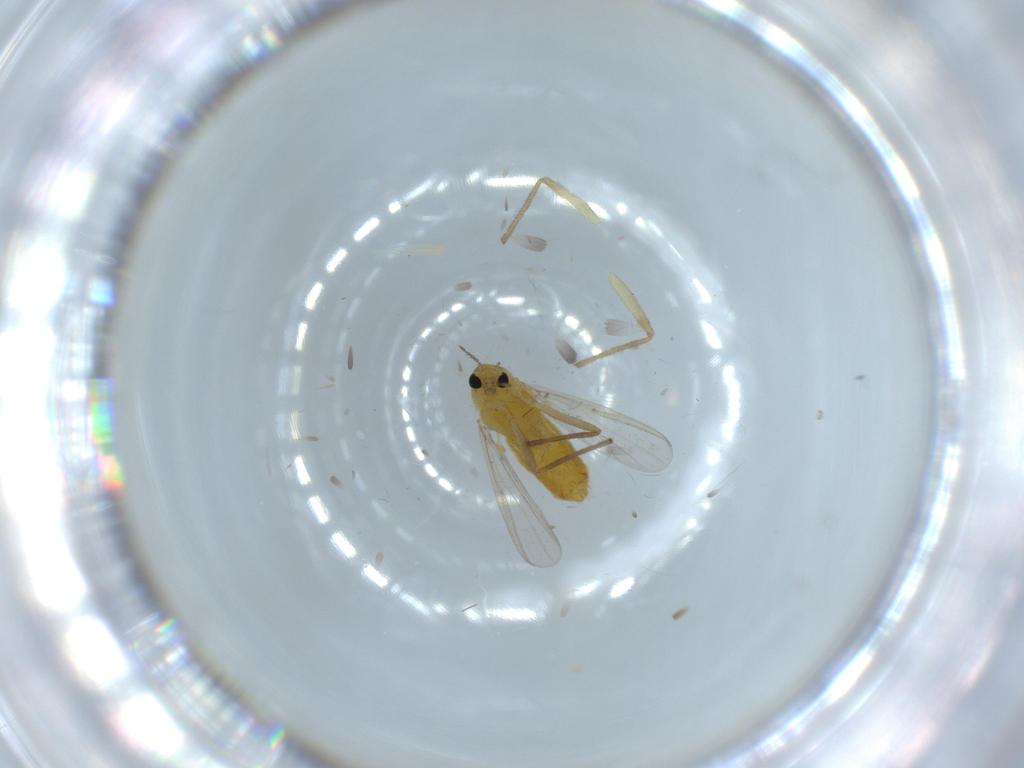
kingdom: Animalia
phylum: Arthropoda
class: Insecta
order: Diptera
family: Chironomidae
